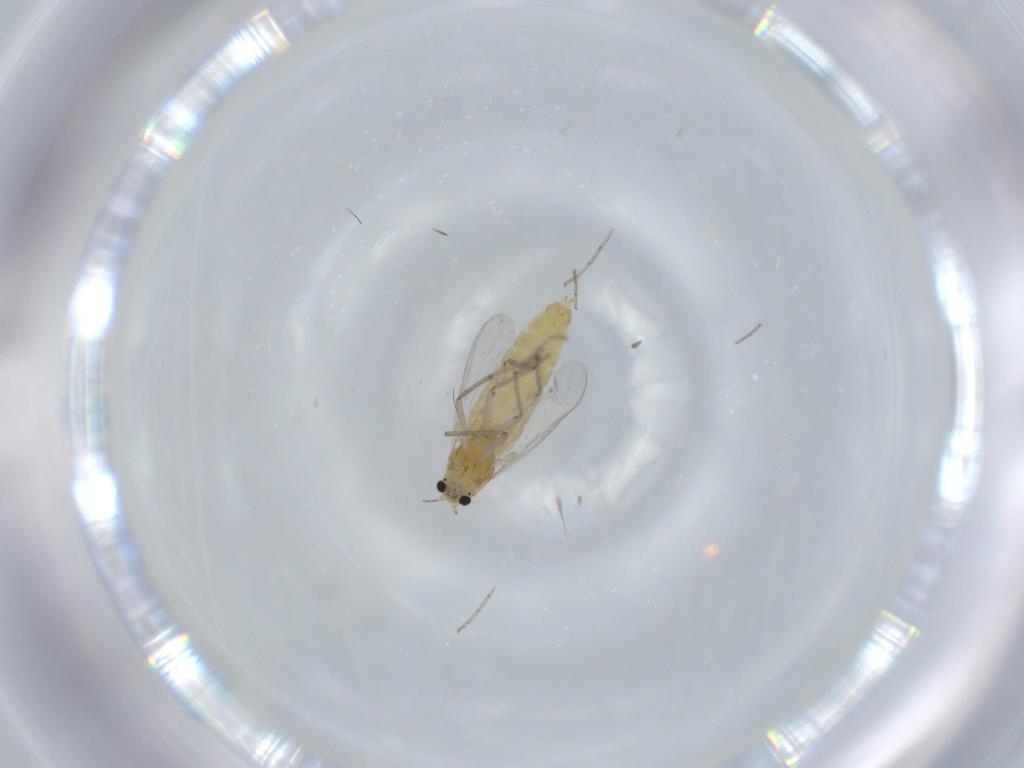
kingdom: Animalia
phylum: Arthropoda
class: Insecta
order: Diptera
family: Chironomidae
